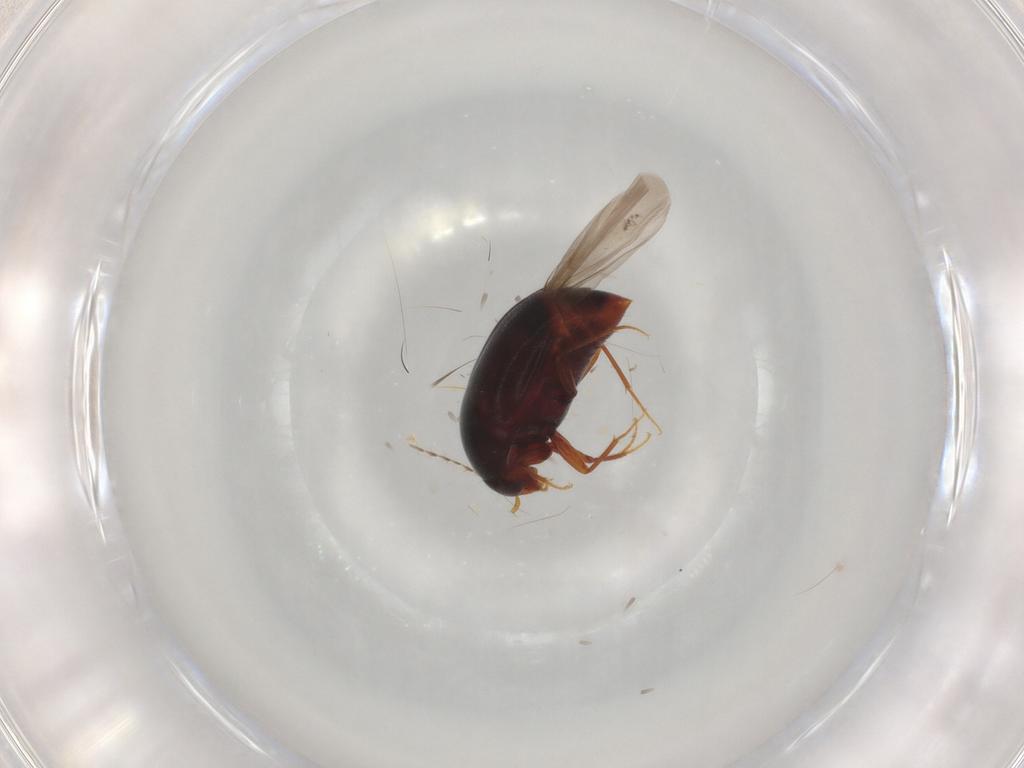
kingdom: Animalia
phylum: Arthropoda
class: Insecta
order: Coleoptera
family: Staphylinidae
